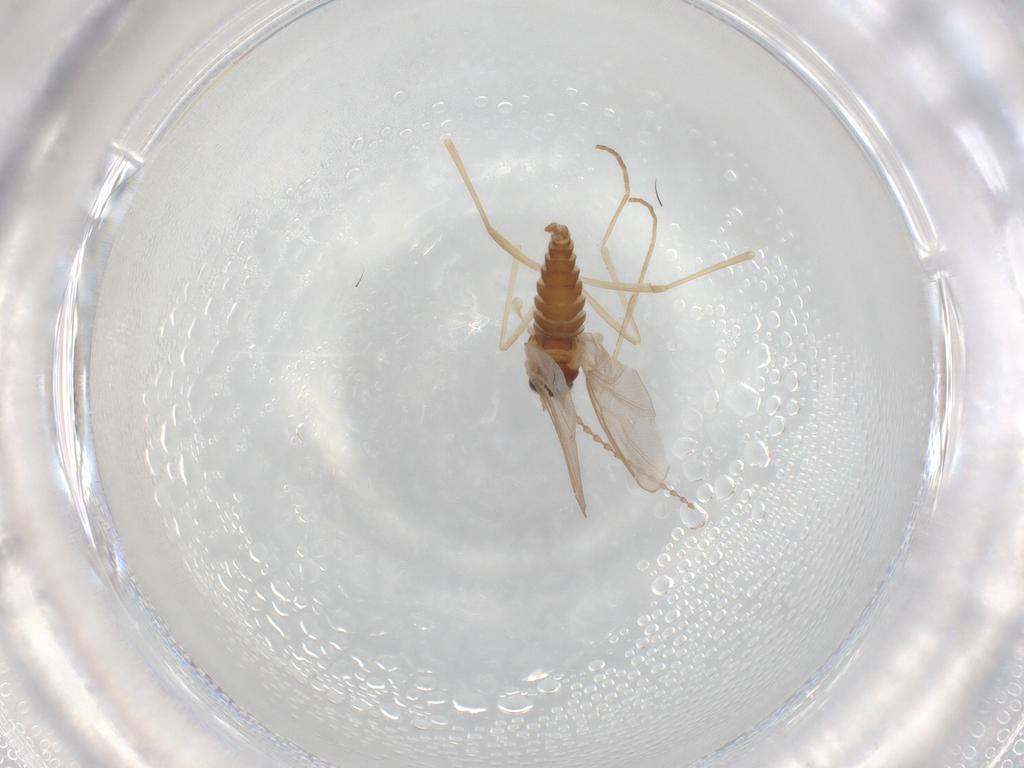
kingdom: Animalia
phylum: Arthropoda
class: Insecta
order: Diptera
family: Cecidomyiidae
